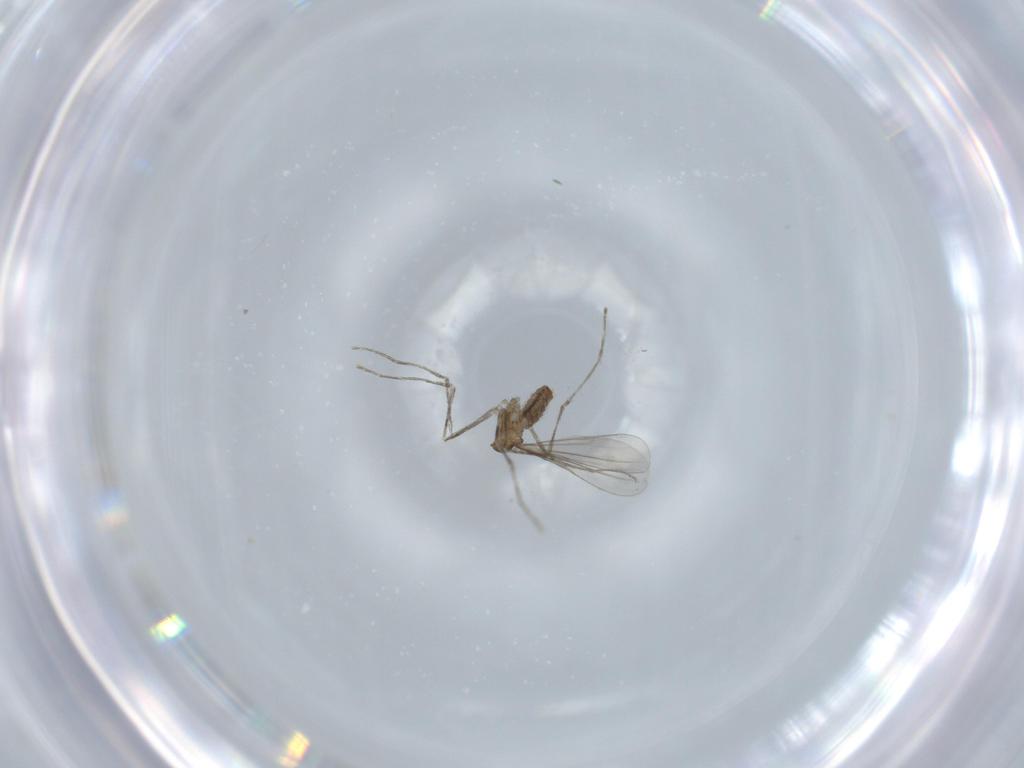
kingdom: Animalia
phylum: Arthropoda
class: Insecta
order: Diptera
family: Cecidomyiidae
